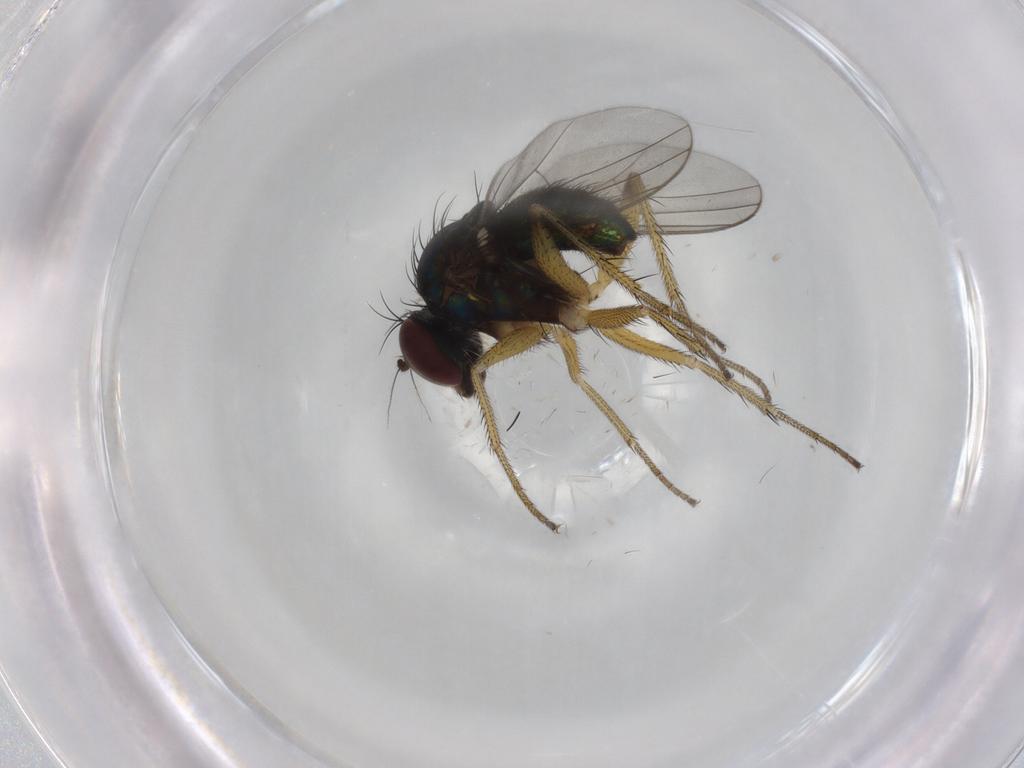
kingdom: Animalia
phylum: Arthropoda
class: Insecta
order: Diptera
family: Dolichopodidae
